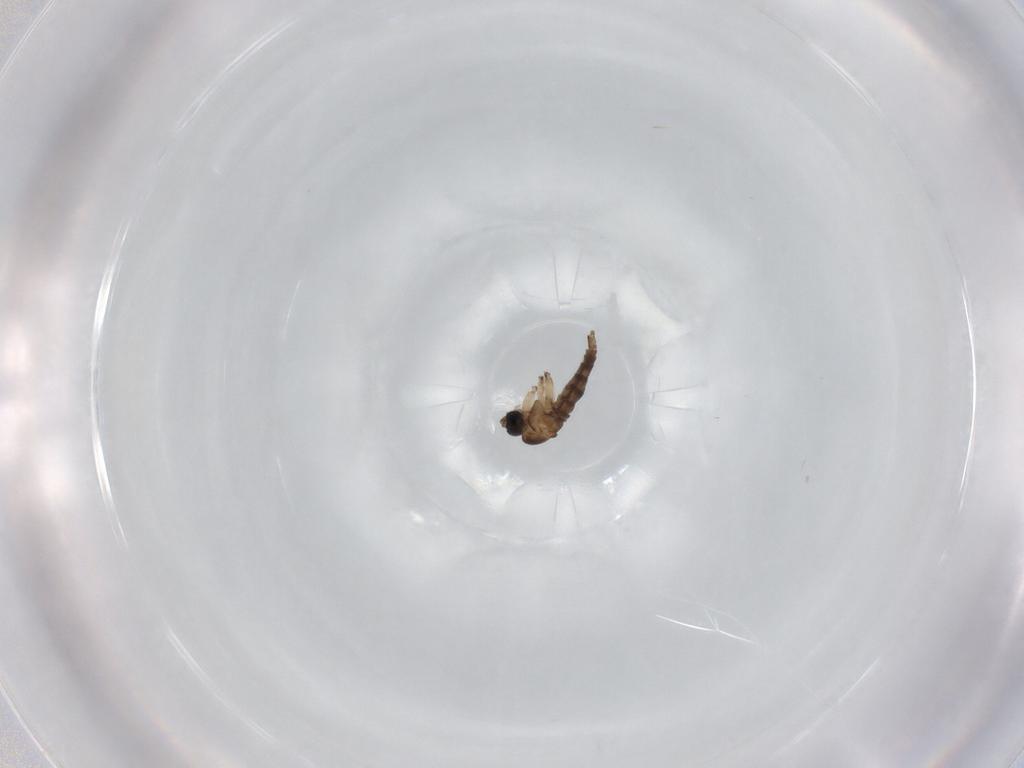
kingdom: Animalia
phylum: Arthropoda
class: Insecta
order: Diptera
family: Sciaridae
